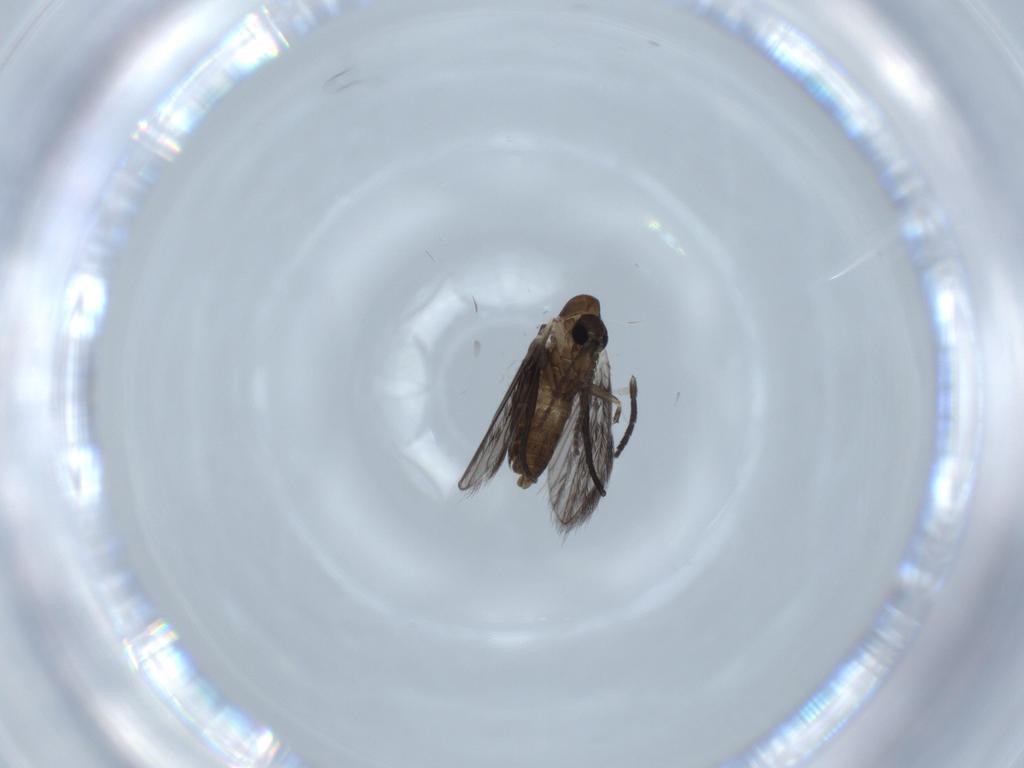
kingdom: Animalia
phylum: Arthropoda
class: Insecta
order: Diptera
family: Psychodidae
